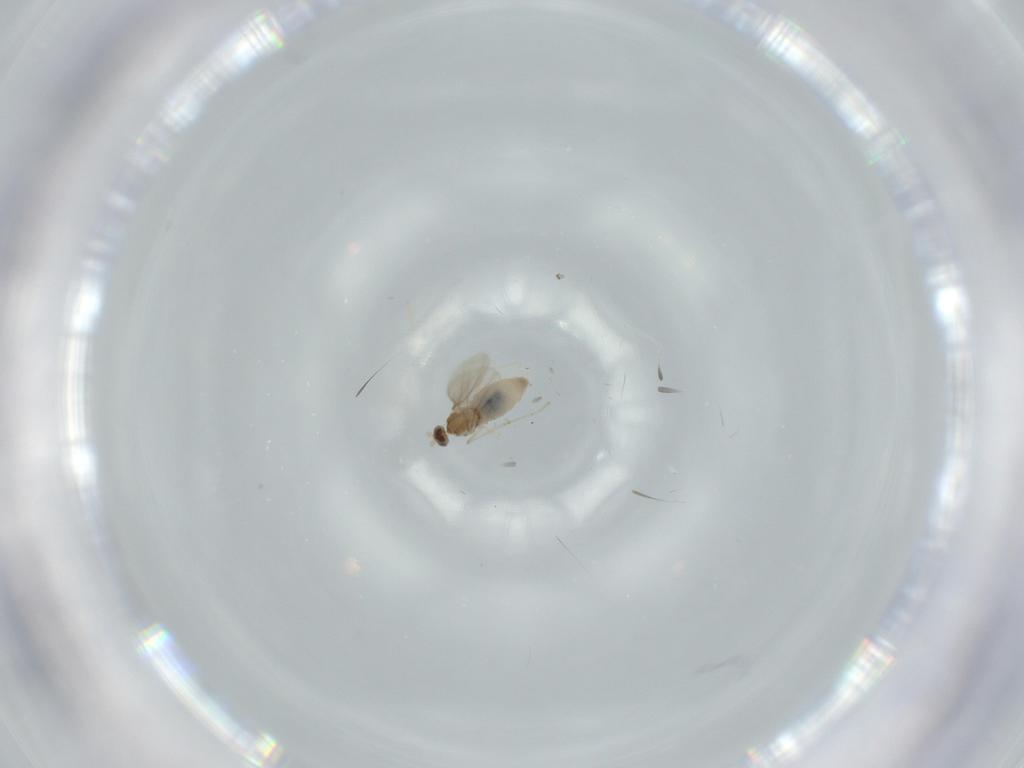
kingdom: Animalia
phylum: Arthropoda
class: Insecta
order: Diptera
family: Cecidomyiidae
